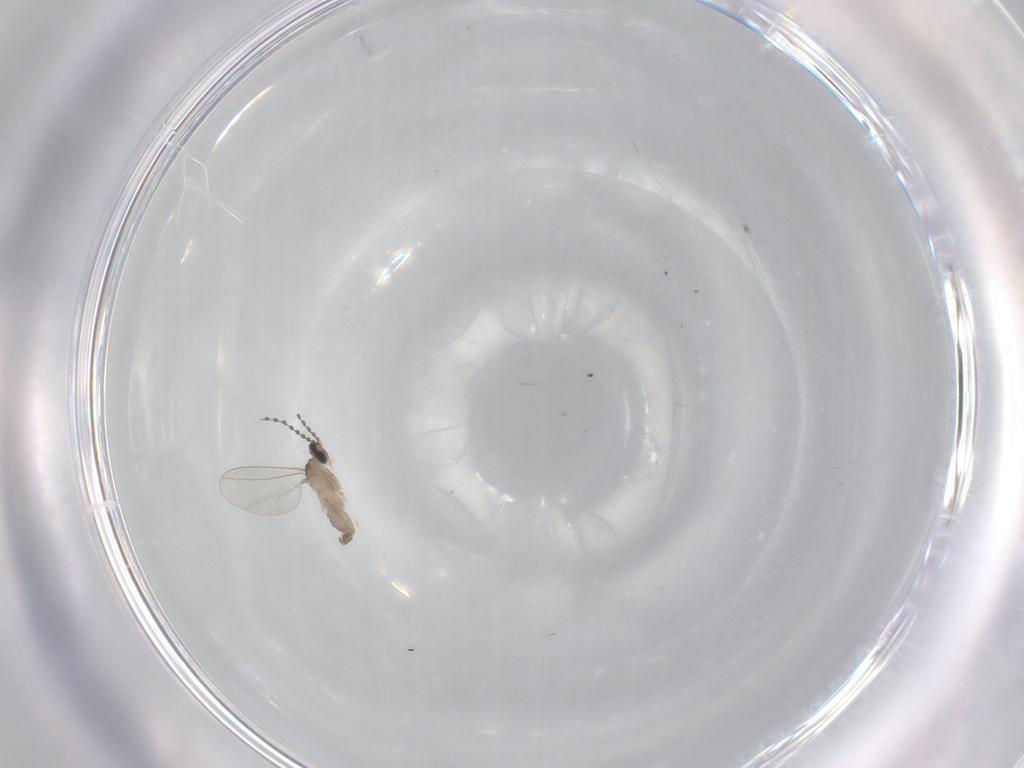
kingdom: Animalia
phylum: Arthropoda
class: Insecta
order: Diptera
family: Cecidomyiidae
